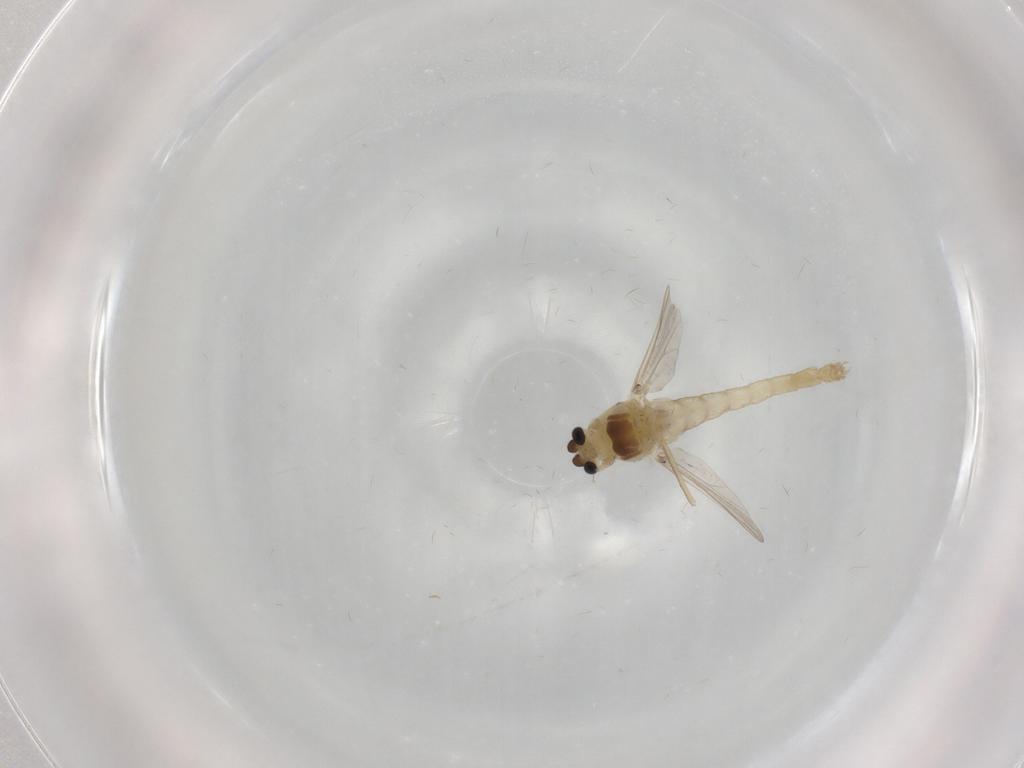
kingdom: Animalia
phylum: Arthropoda
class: Insecta
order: Diptera
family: Chironomidae
